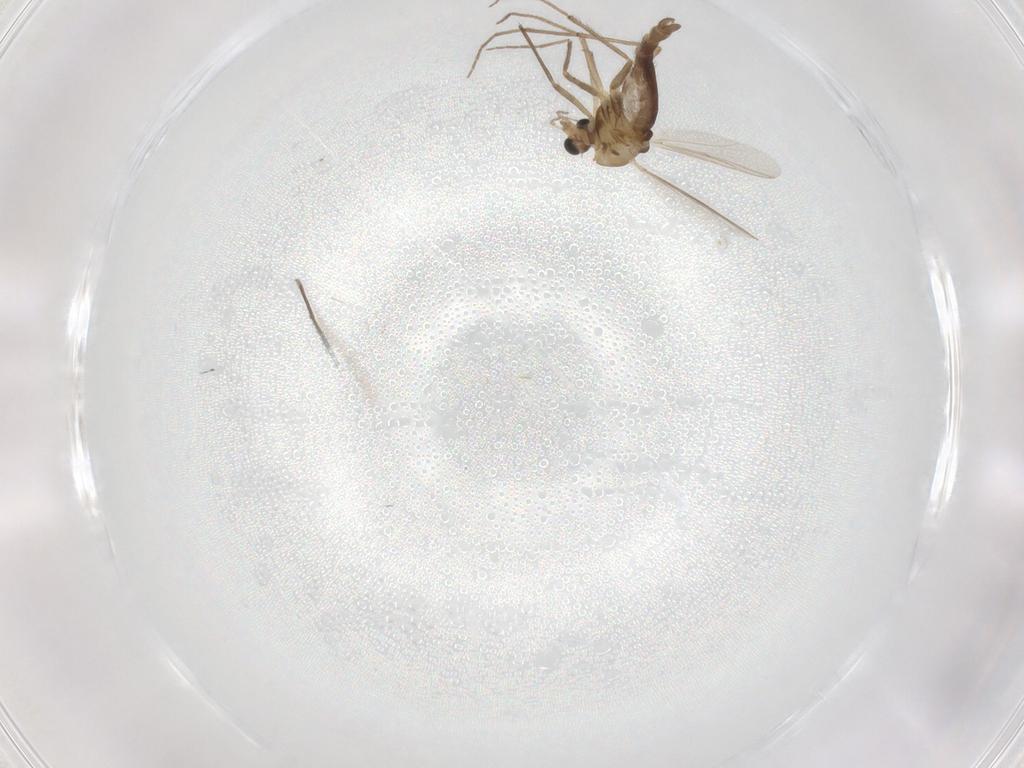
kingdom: Animalia
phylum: Arthropoda
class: Insecta
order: Diptera
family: Chironomidae
